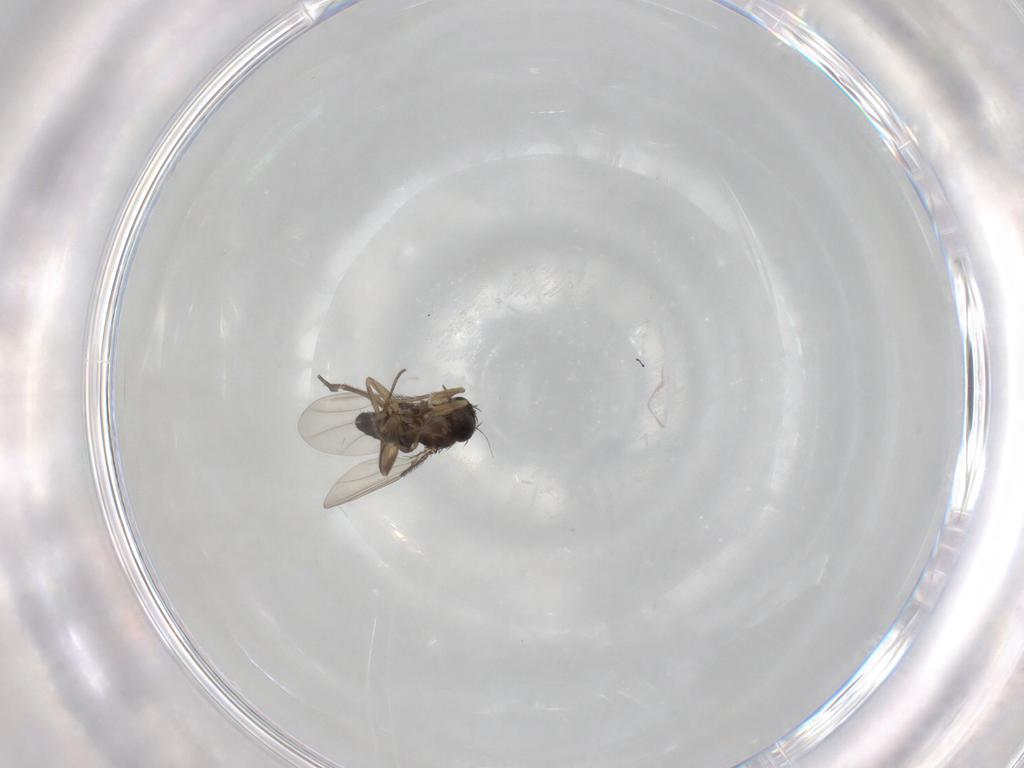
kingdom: Animalia
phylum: Arthropoda
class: Insecta
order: Diptera
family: Phoridae
